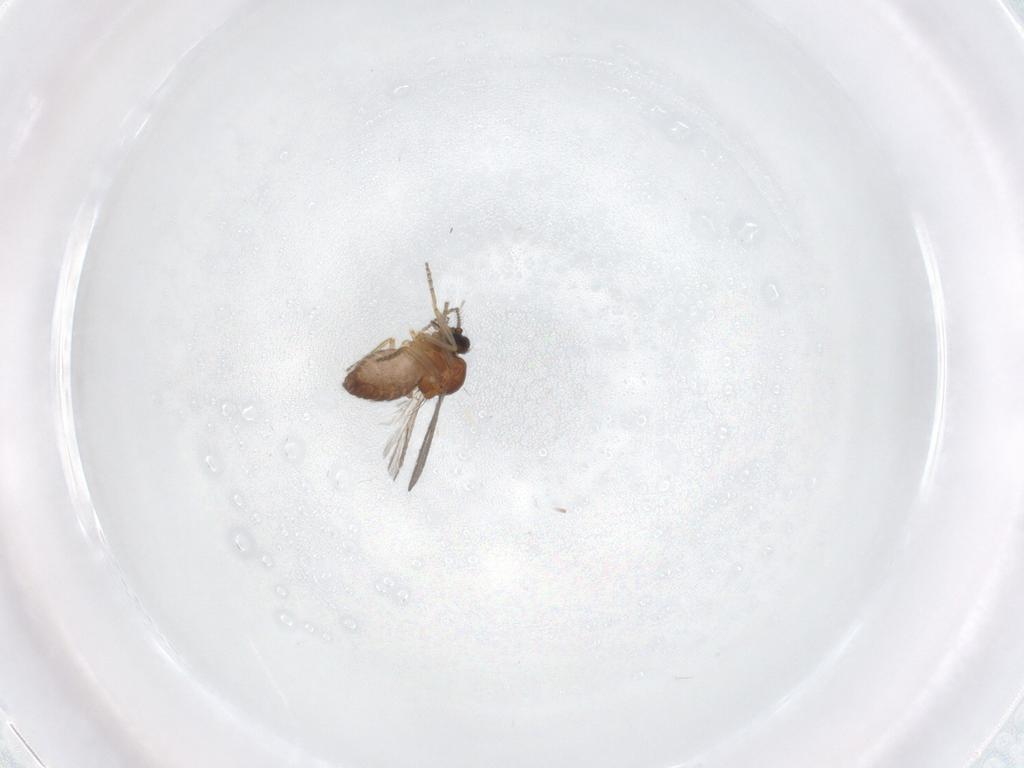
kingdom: Animalia
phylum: Arthropoda
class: Insecta
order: Diptera
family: Ceratopogonidae
